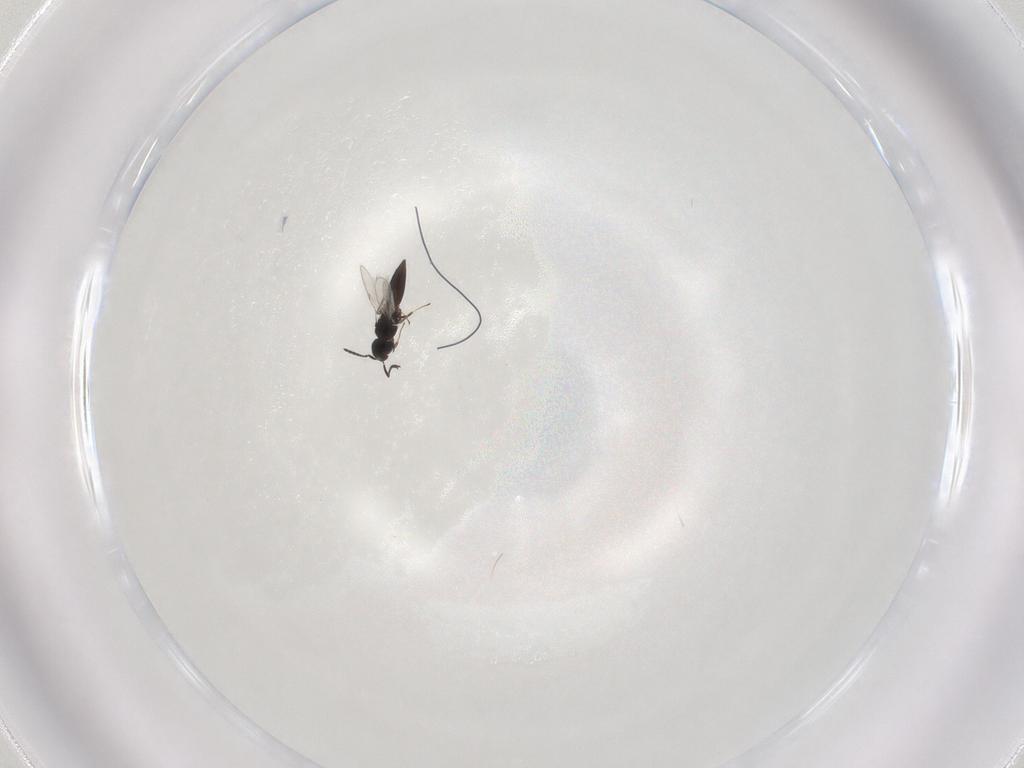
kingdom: Animalia
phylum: Arthropoda
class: Insecta
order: Hymenoptera
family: Scelionidae
